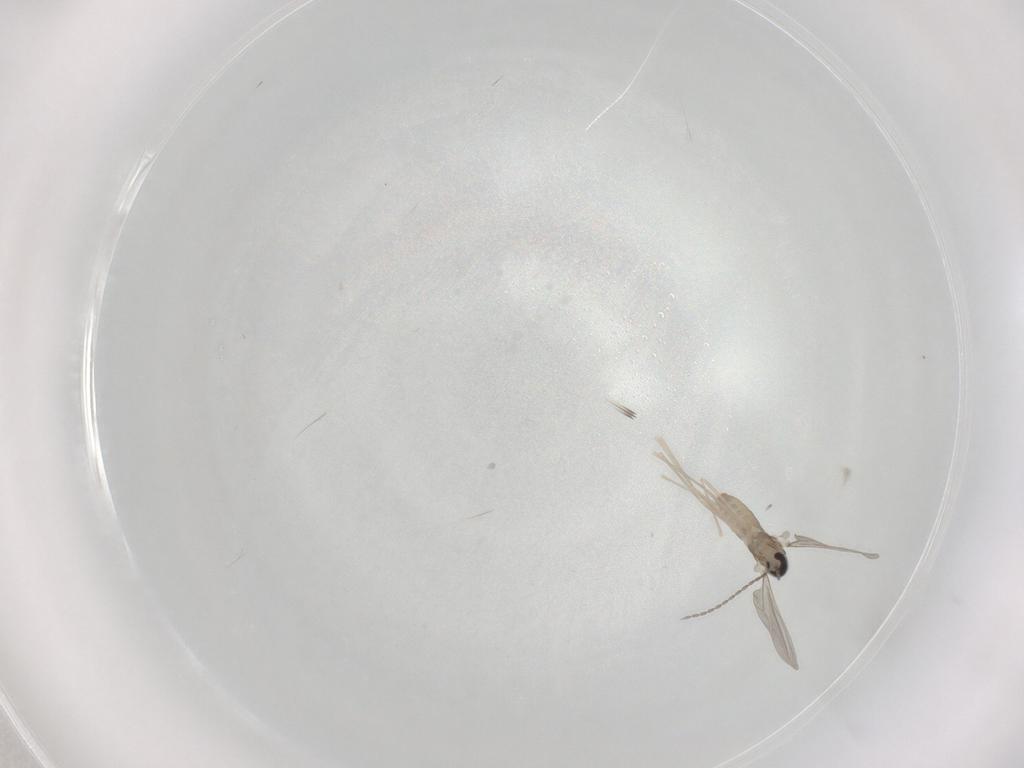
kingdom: Animalia
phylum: Arthropoda
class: Insecta
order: Diptera
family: Cecidomyiidae
